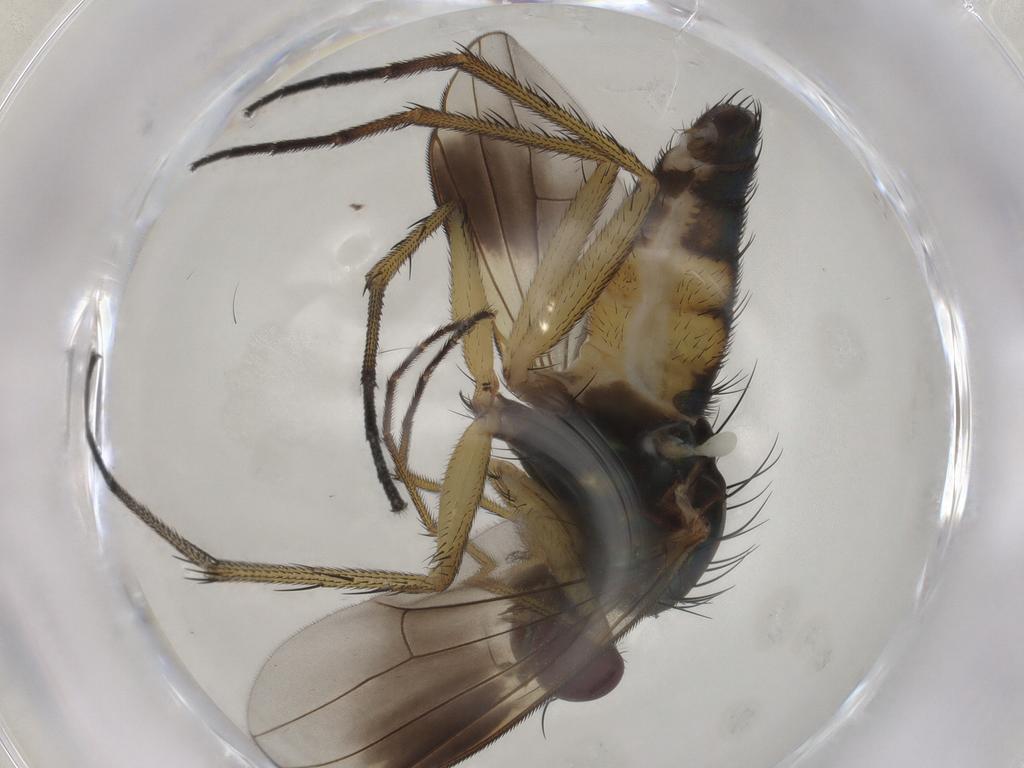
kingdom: Animalia
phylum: Arthropoda
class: Insecta
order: Diptera
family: Dolichopodidae
